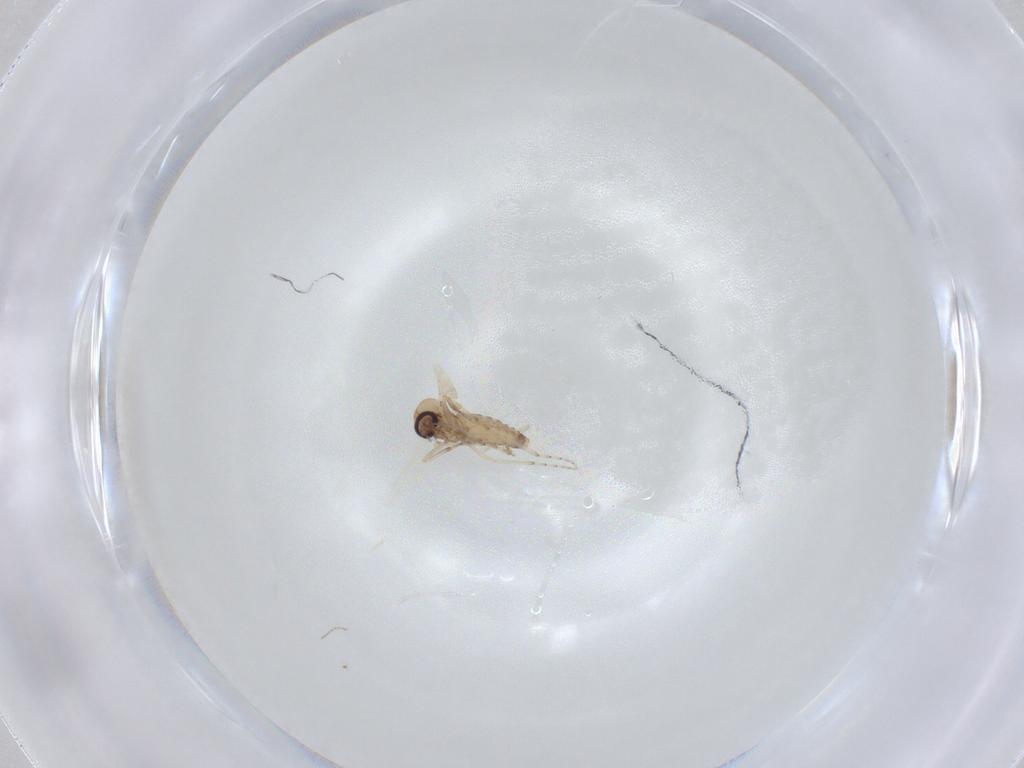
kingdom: Animalia
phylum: Arthropoda
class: Insecta
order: Diptera
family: Ceratopogonidae
